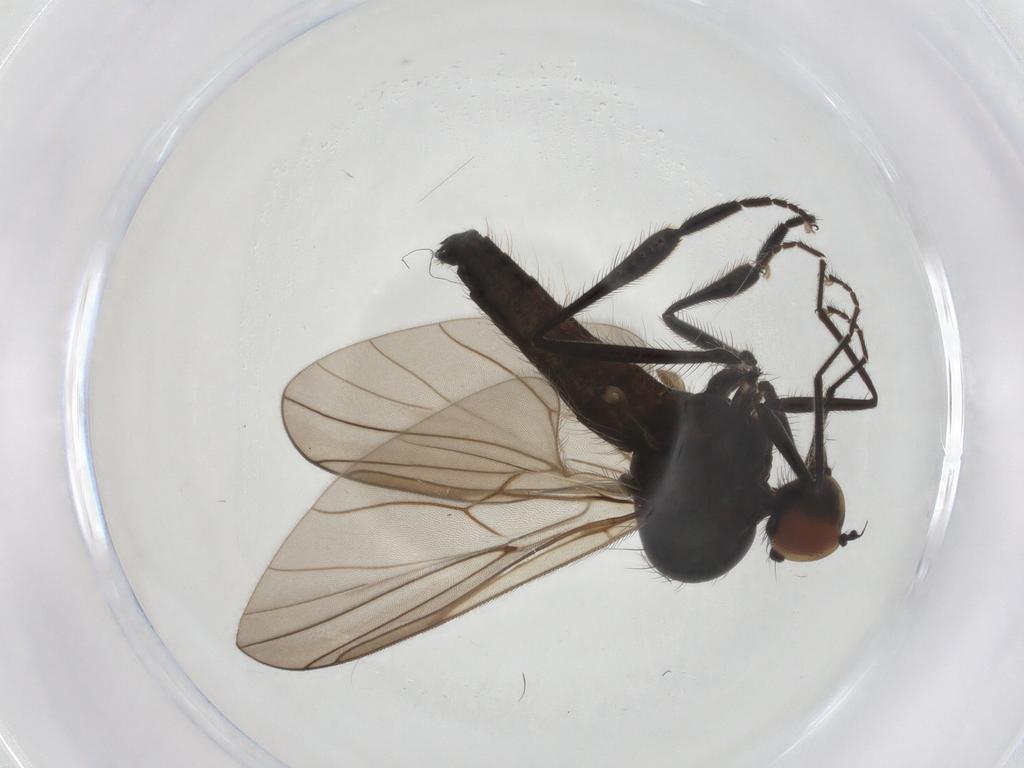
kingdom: Animalia
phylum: Arthropoda
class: Insecta
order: Diptera
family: Hybotidae
